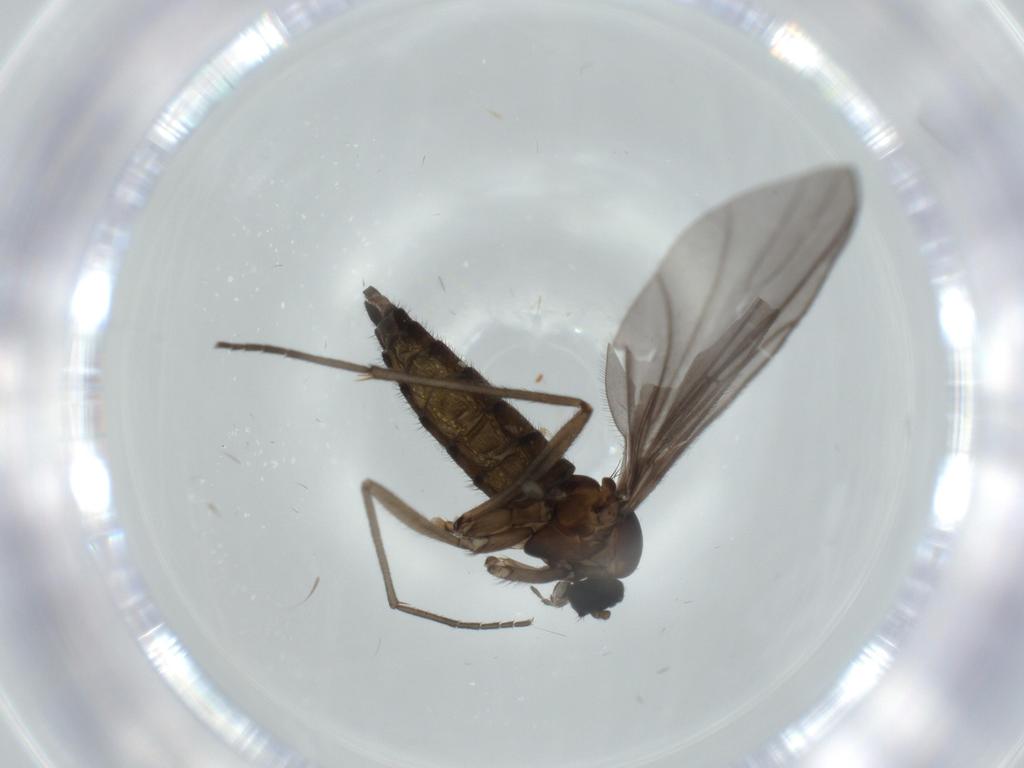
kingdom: Animalia
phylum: Arthropoda
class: Insecta
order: Diptera
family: Sciaridae
